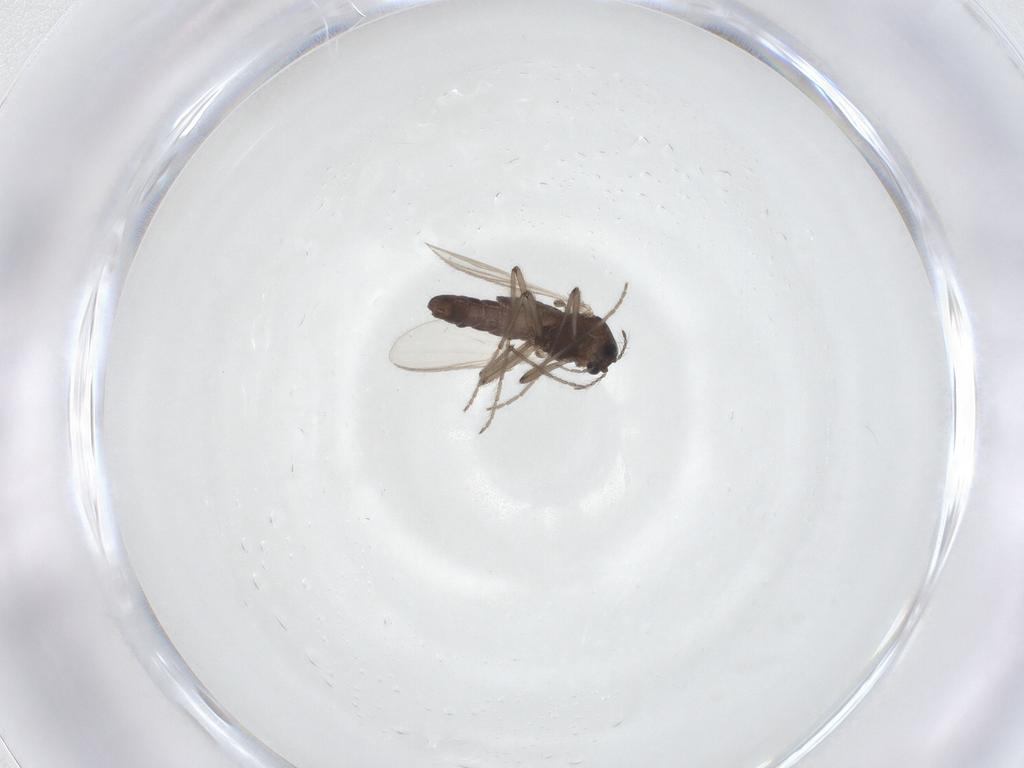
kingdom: Animalia
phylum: Arthropoda
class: Insecta
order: Diptera
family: Chironomidae
